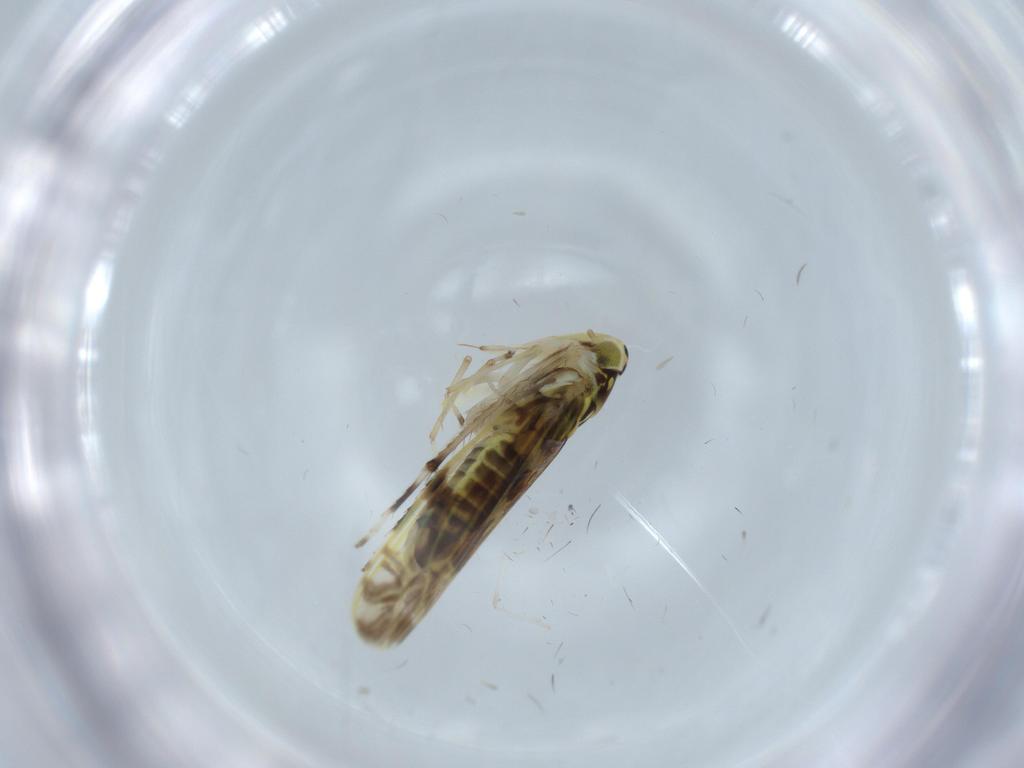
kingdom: Animalia
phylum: Arthropoda
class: Insecta
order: Hemiptera
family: Cicadellidae
